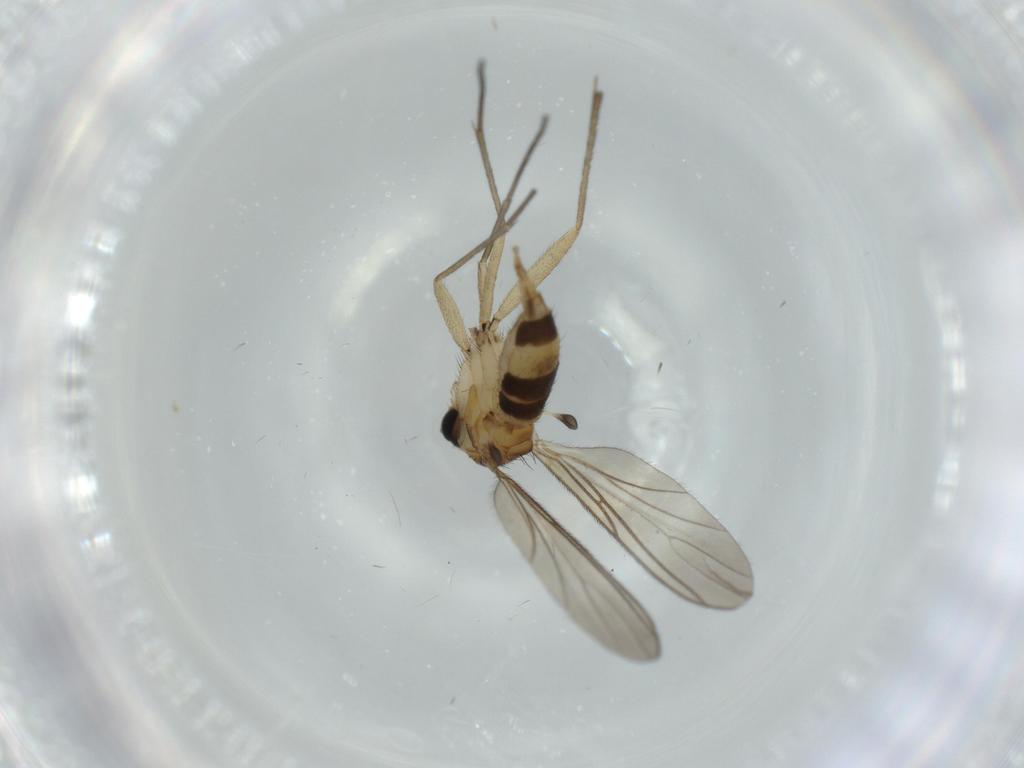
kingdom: Animalia
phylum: Arthropoda
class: Insecta
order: Diptera
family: Sciaridae
